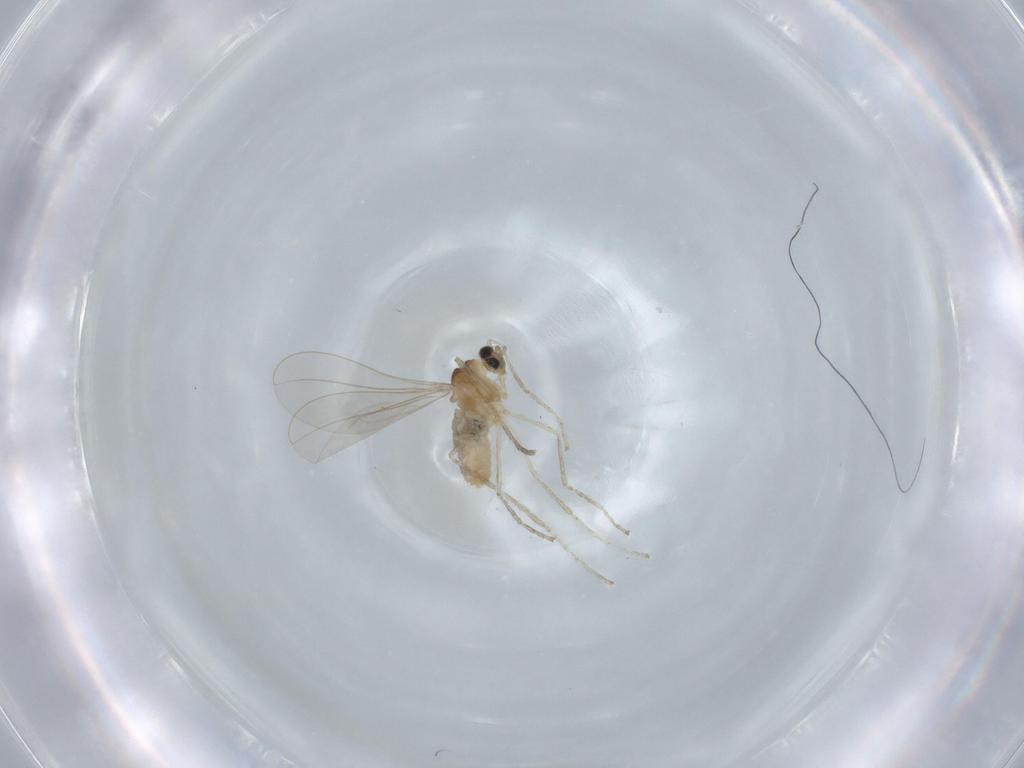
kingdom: Animalia
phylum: Arthropoda
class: Insecta
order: Diptera
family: Cecidomyiidae
